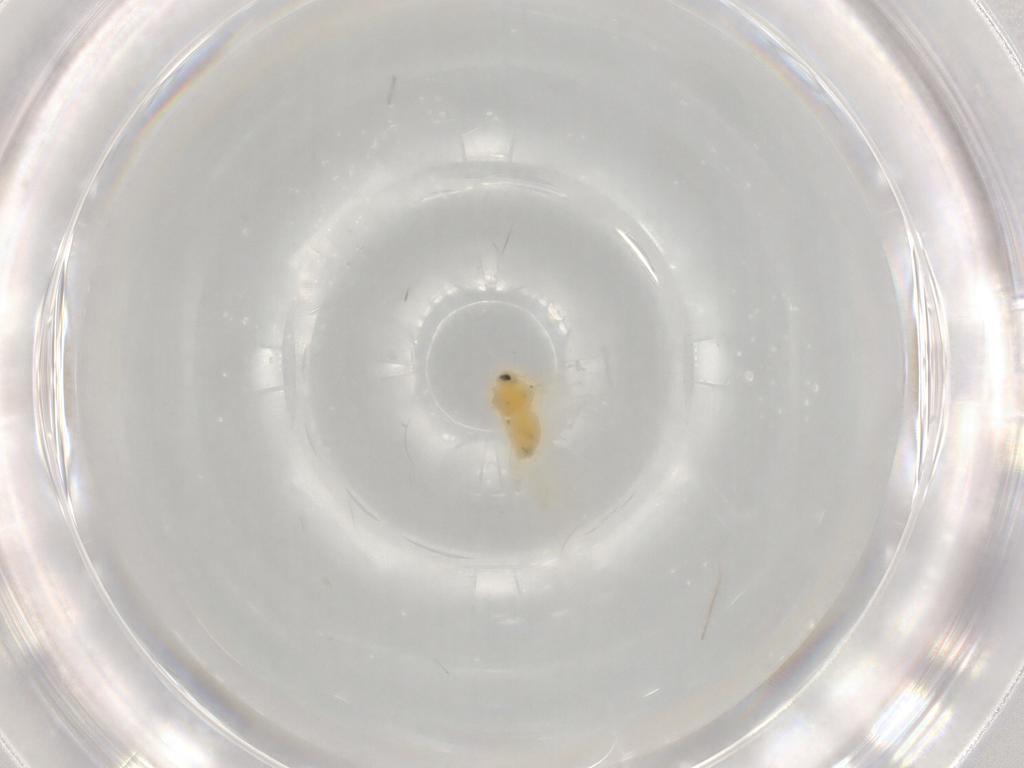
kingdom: Animalia
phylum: Arthropoda
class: Insecta
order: Hemiptera
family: Aleyrodidae
